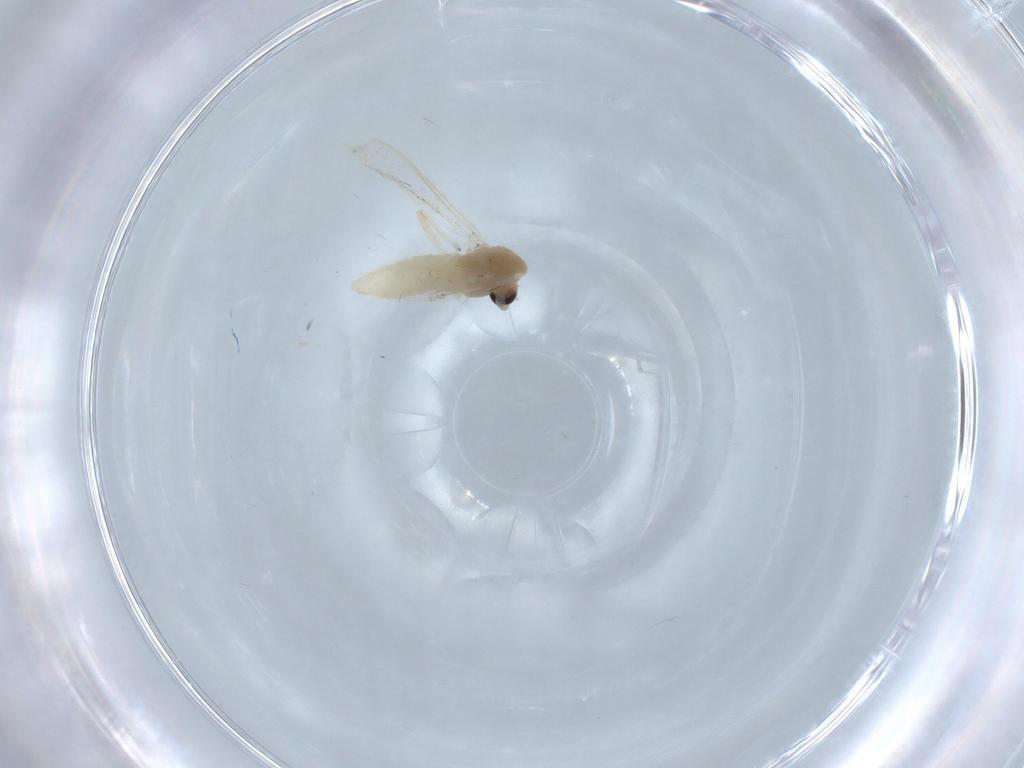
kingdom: Animalia
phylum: Arthropoda
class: Insecta
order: Diptera
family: Chironomidae
